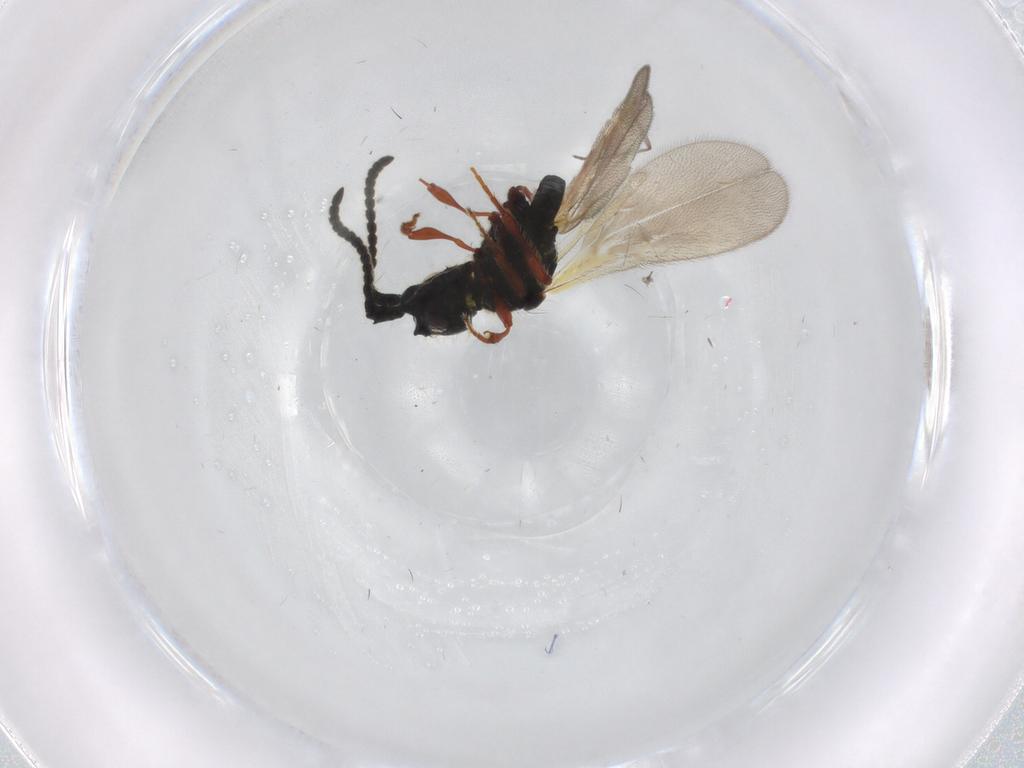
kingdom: Animalia
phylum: Arthropoda
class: Insecta
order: Hymenoptera
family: Diapriidae
